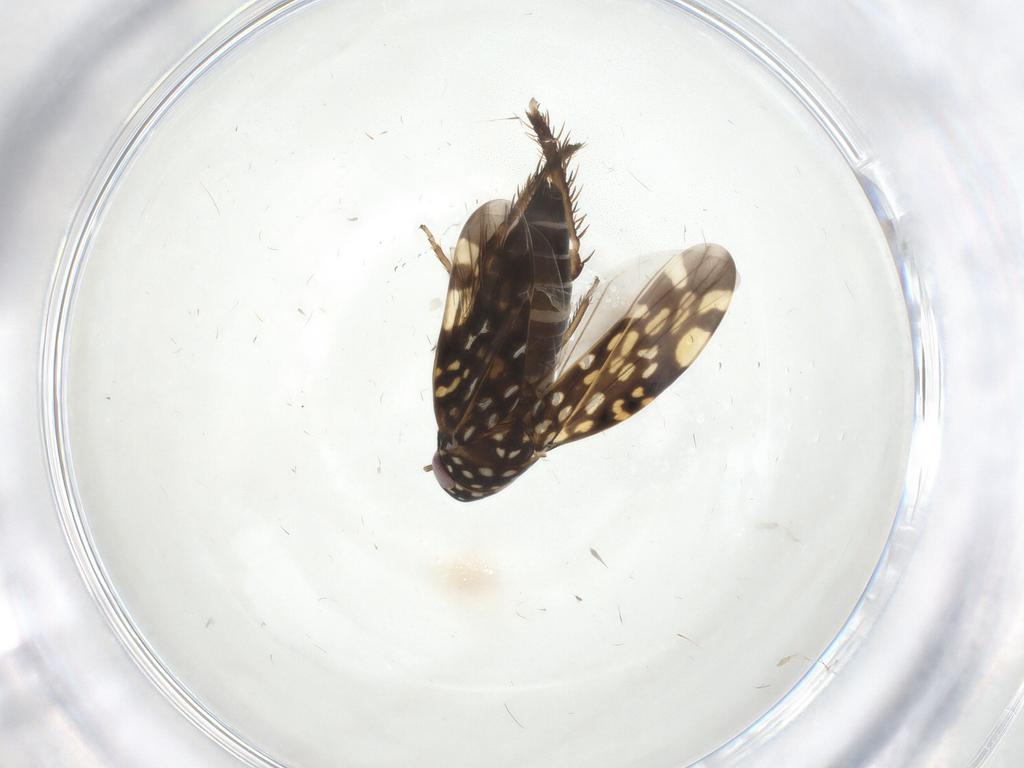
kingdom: Animalia
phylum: Arthropoda
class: Insecta
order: Hemiptera
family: Cicadellidae
